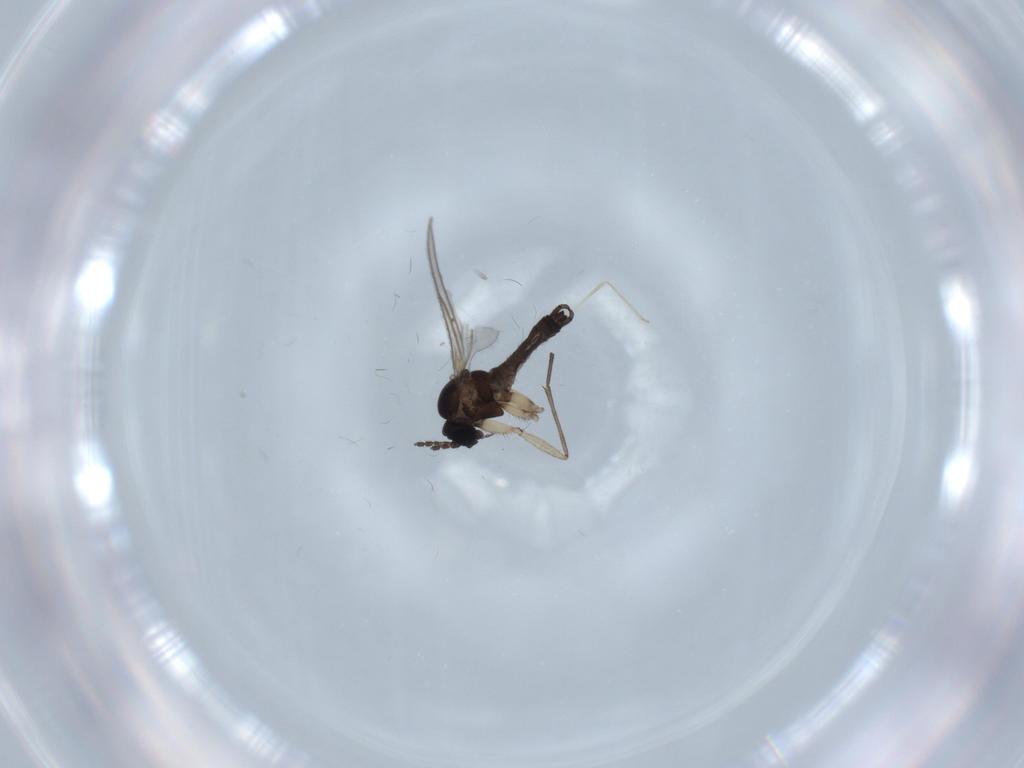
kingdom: Animalia
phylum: Arthropoda
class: Insecta
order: Diptera
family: Sciaridae
